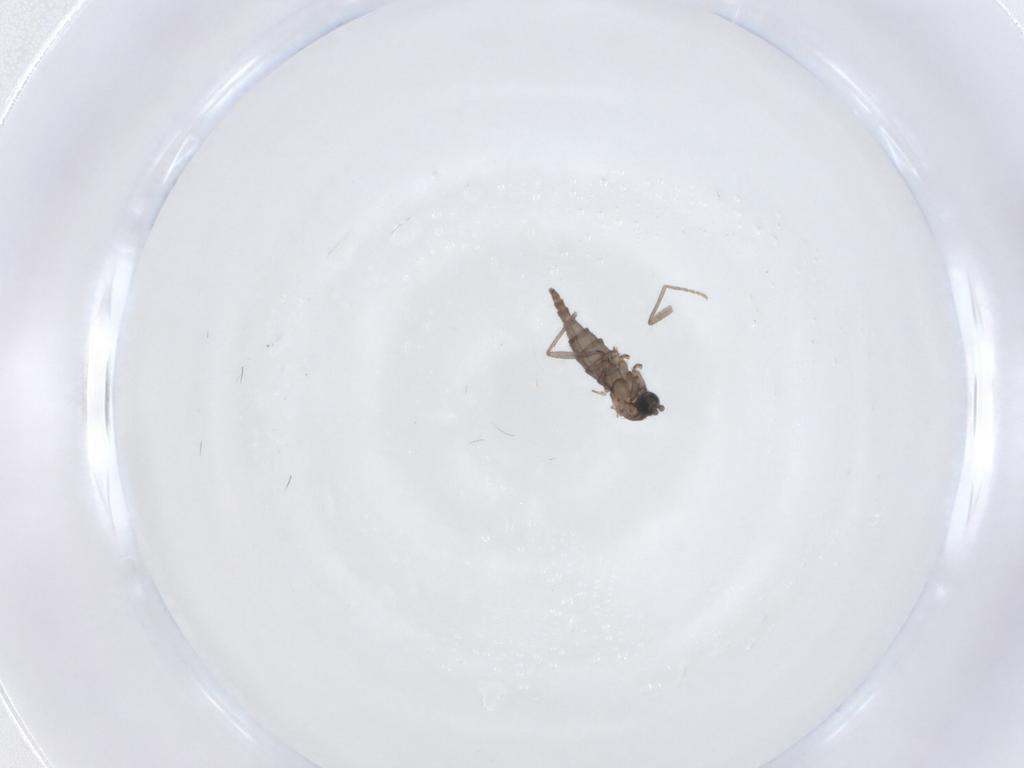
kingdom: Animalia
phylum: Arthropoda
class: Insecta
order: Diptera
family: Sciaridae
